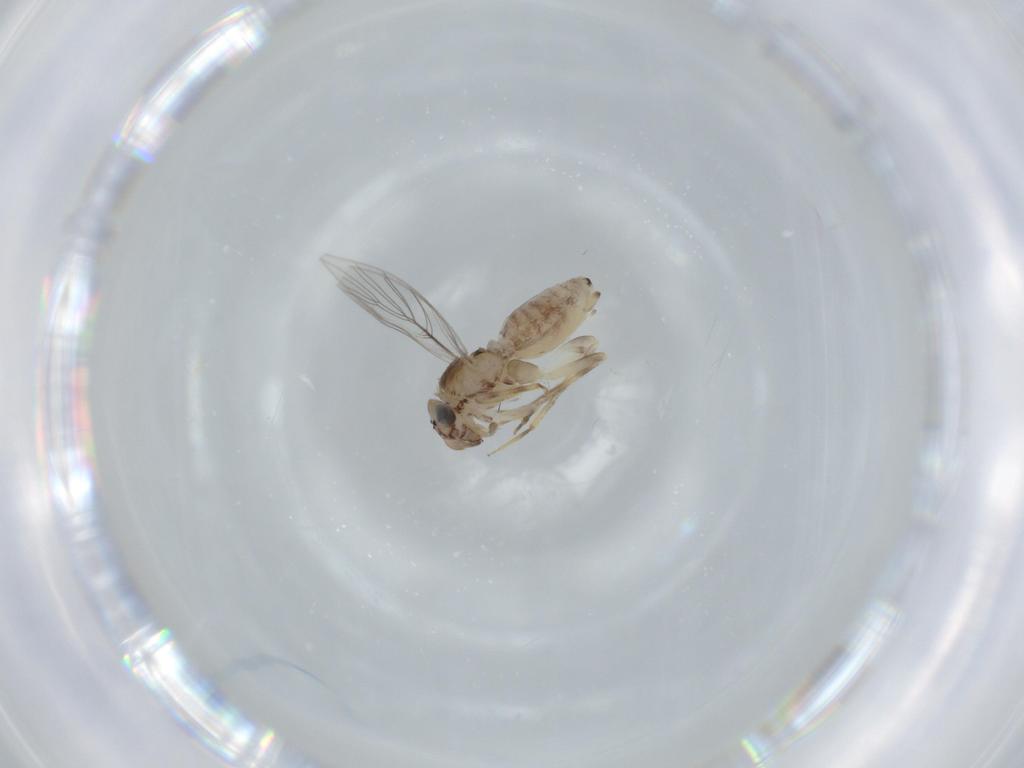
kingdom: Animalia
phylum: Arthropoda
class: Insecta
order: Psocodea
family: Lepidopsocidae
